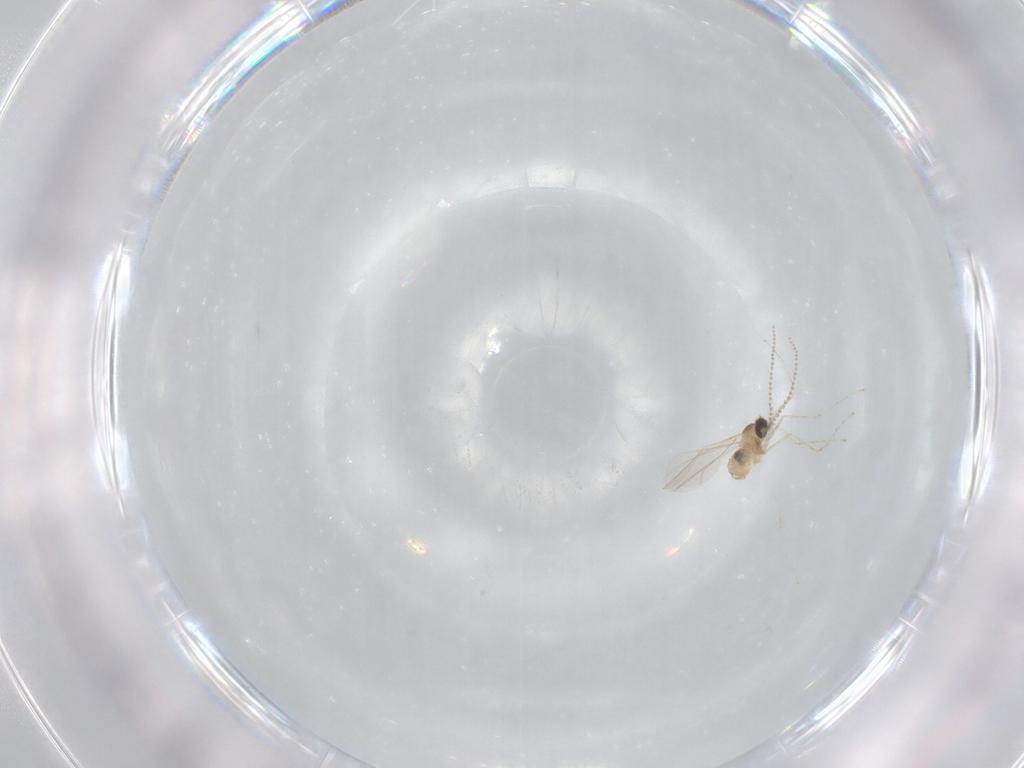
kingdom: Animalia
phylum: Arthropoda
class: Insecta
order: Diptera
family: Cecidomyiidae
